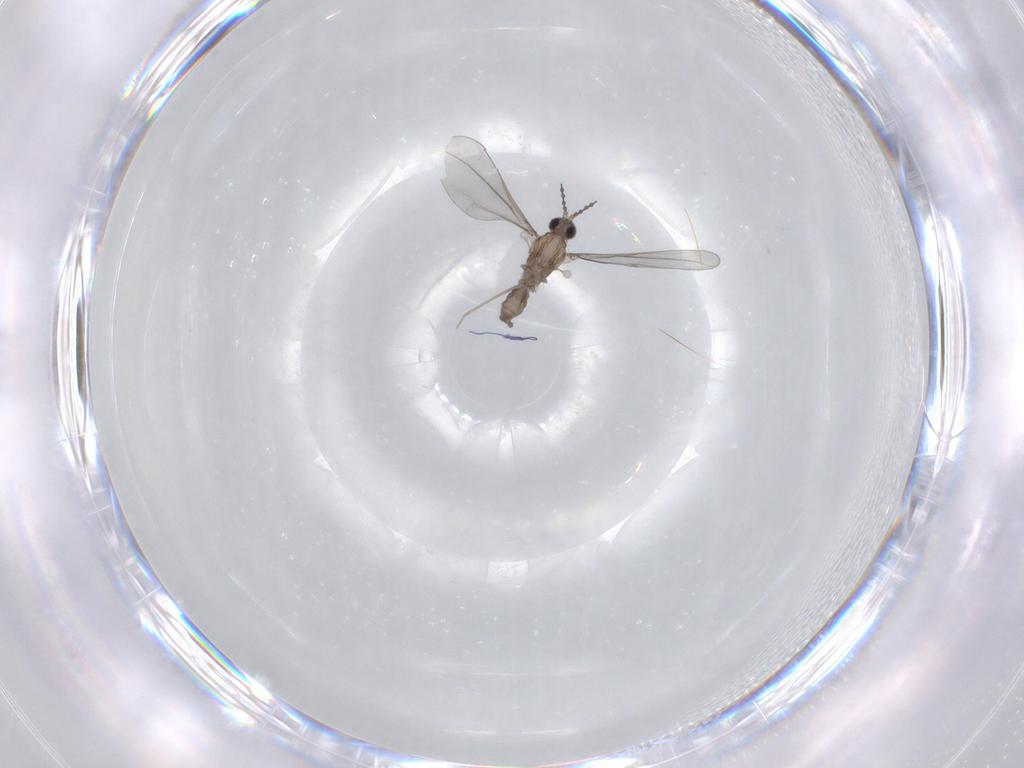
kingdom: Animalia
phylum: Arthropoda
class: Insecta
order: Diptera
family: Cecidomyiidae
